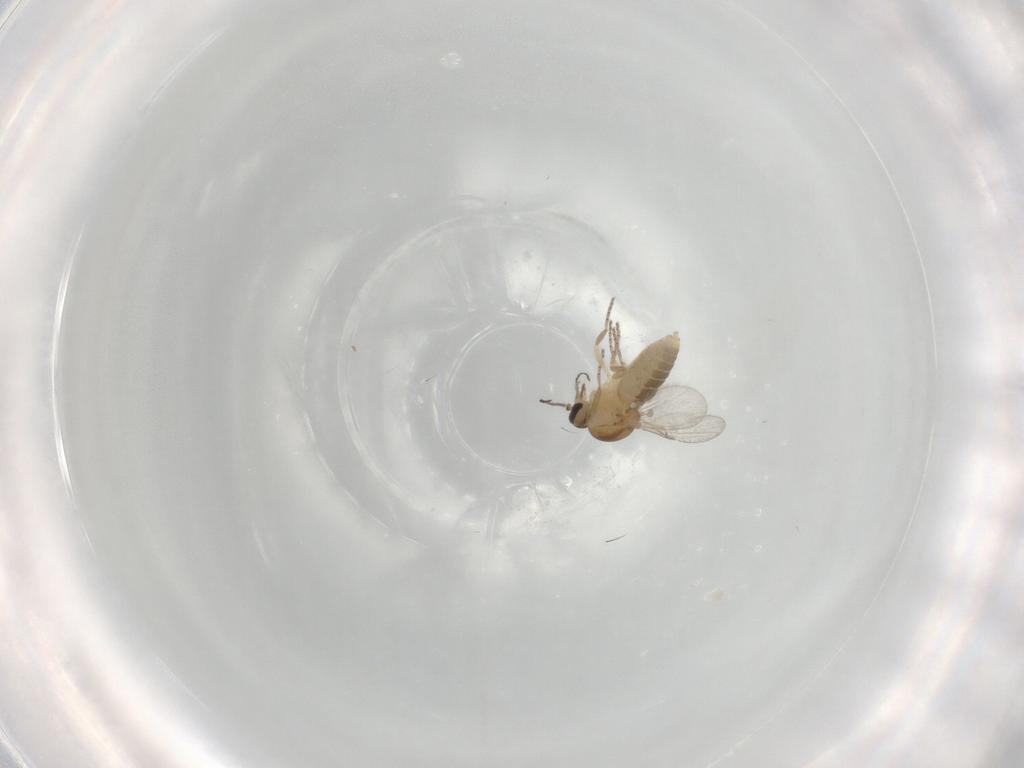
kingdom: Animalia
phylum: Arthropoda
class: Insecta
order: Diptera
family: Ceratopogonidae
